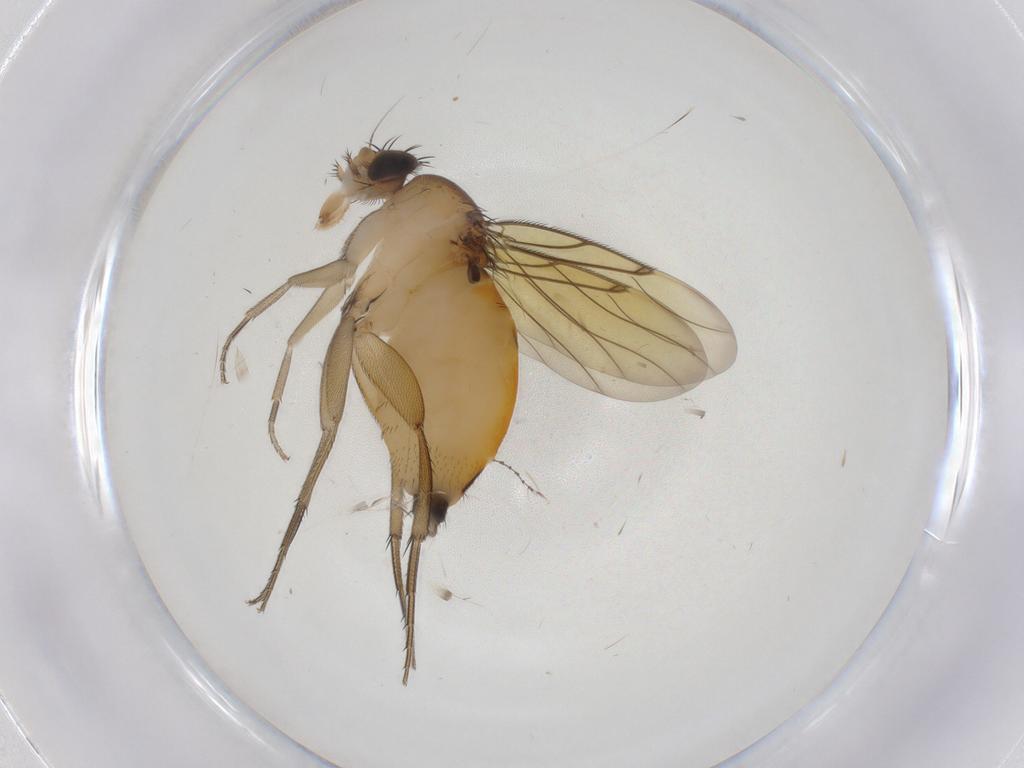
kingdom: Animalia
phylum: Arthropoda
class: Insecta
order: Diptera
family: Phoridae
